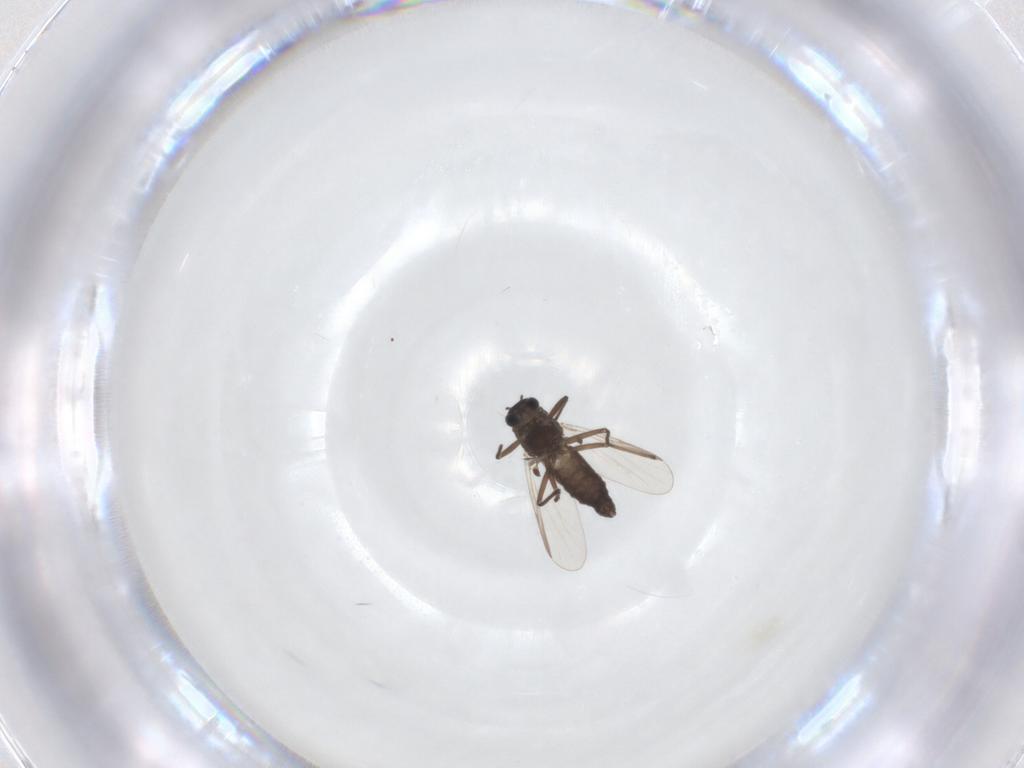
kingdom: Animalia
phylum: Arthropoda
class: Insecta
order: Diptera
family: Chironomidae
